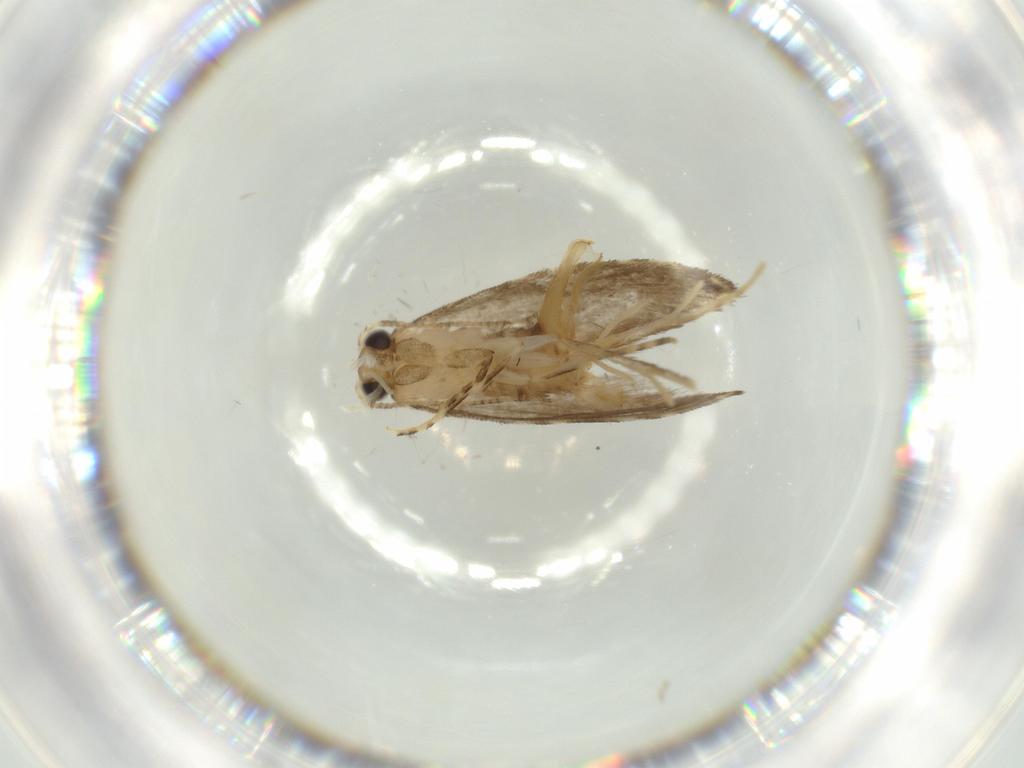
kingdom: Animalia
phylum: Arthropoda
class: Insecta
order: Lepidoptera
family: Tineidae
